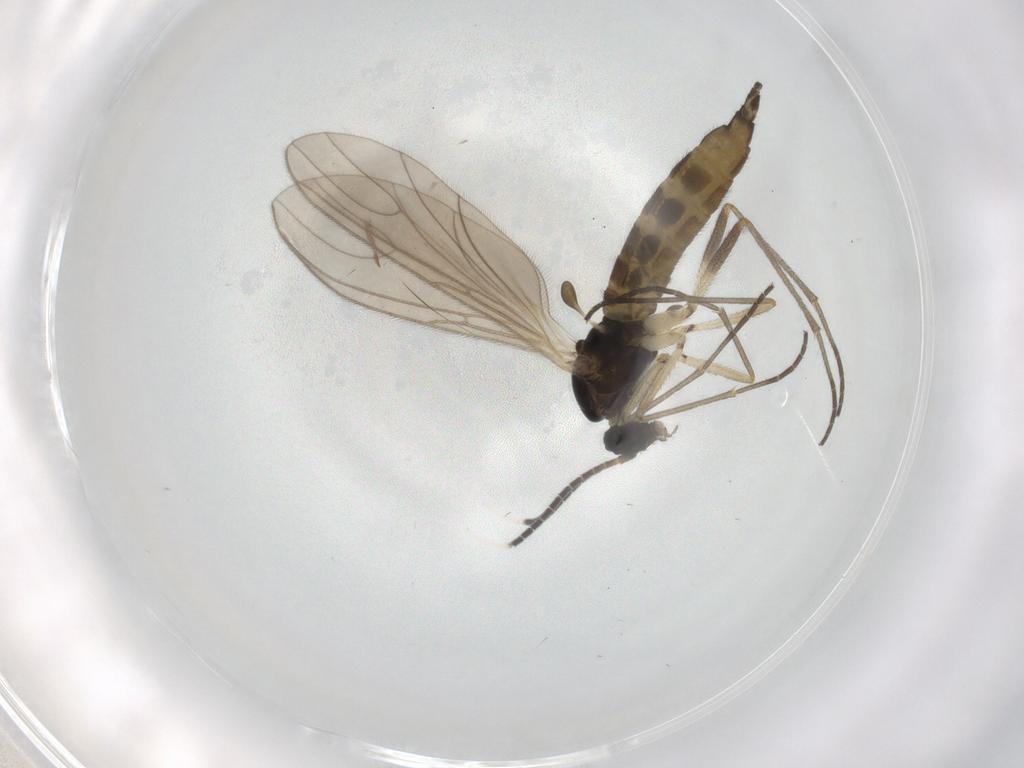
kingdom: Animalia
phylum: Arthropoda
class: Insecta
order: Diptera
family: Sciaridae
